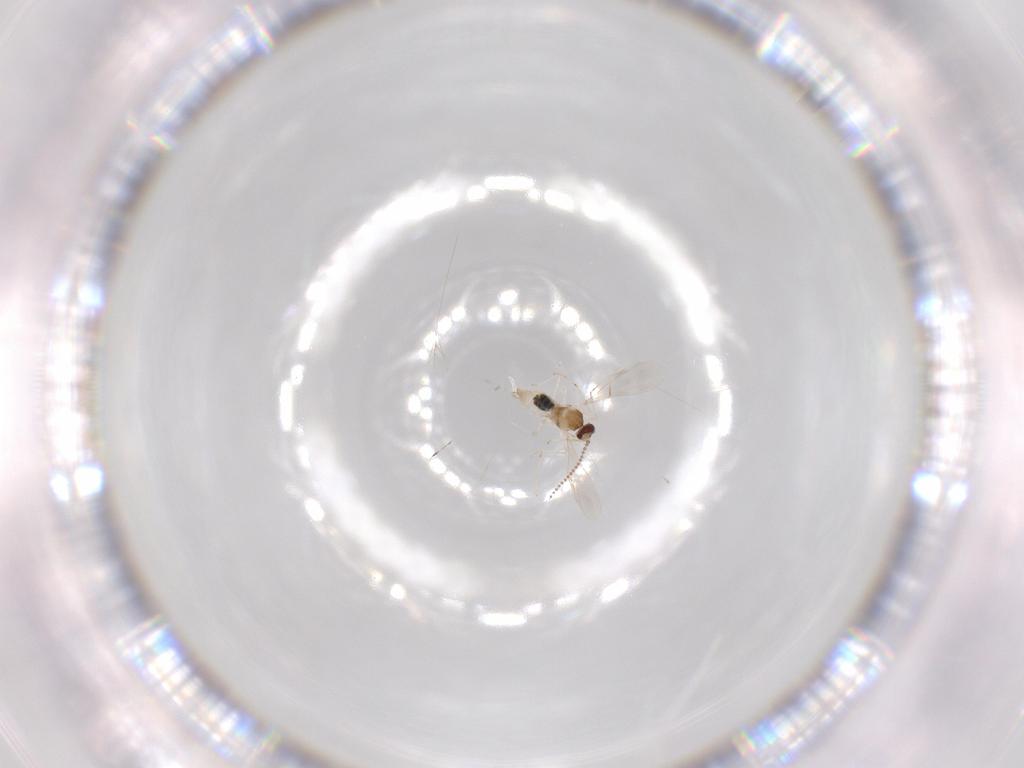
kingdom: Animalia
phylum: Arthropoda
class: Insecta
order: Diptera
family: Cecidomyiidae
